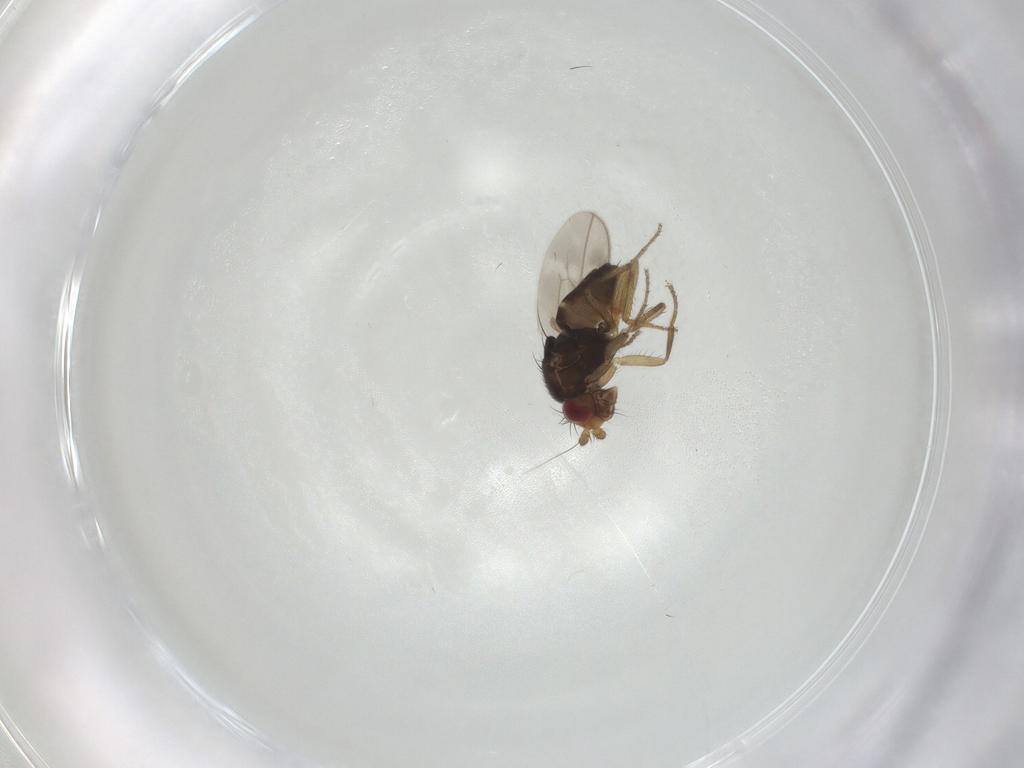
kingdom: Animalia
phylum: Arthropoda
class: Insecta
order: Diptera
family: Sphaeroceridae
